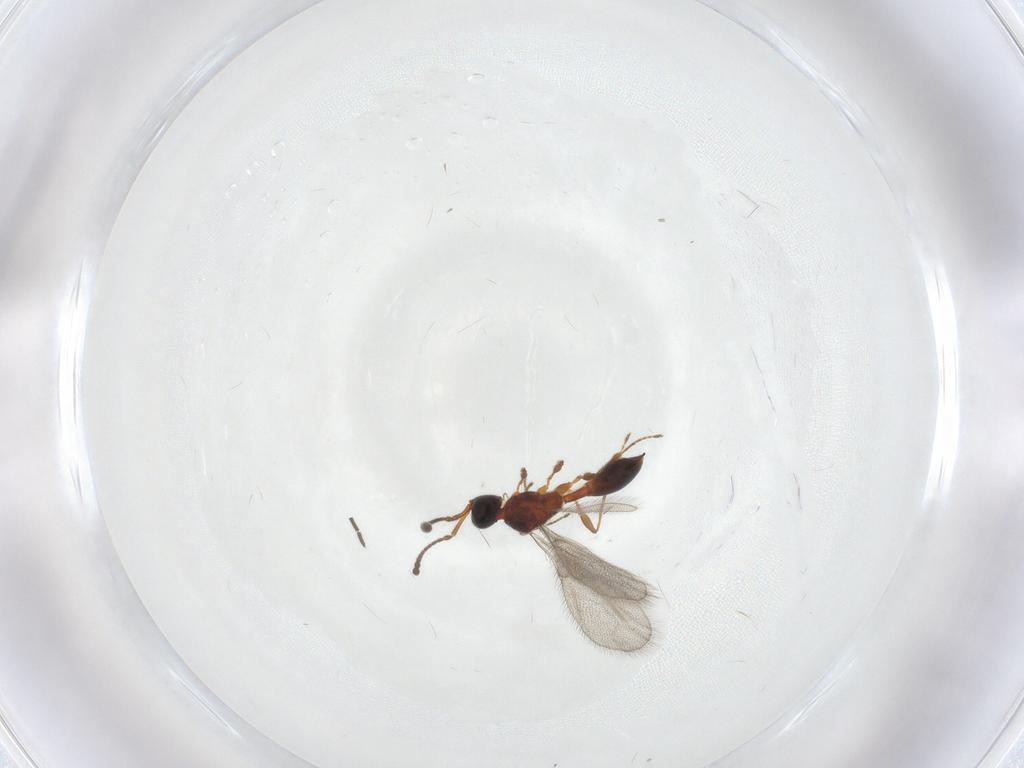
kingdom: Animalia
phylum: Arthropoda
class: Insecta
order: Hymenoptera
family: Diapriidae
